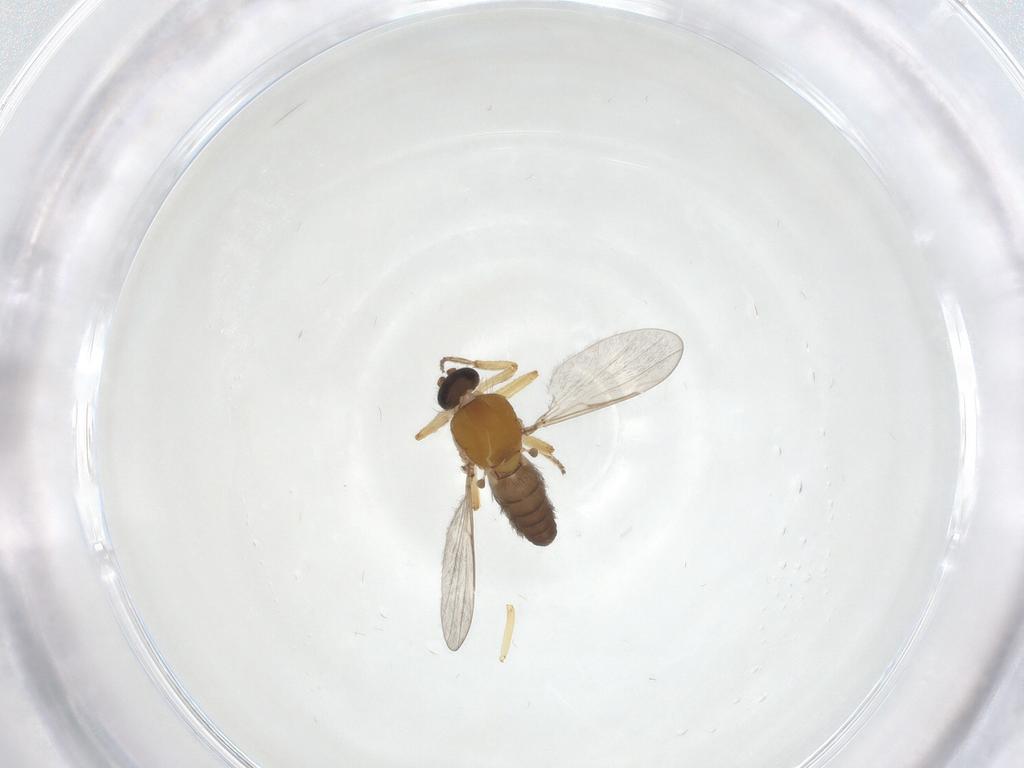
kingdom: Animalia
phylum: Arthropoda
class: Insecta
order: Diptera
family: Ceratopogonidae
